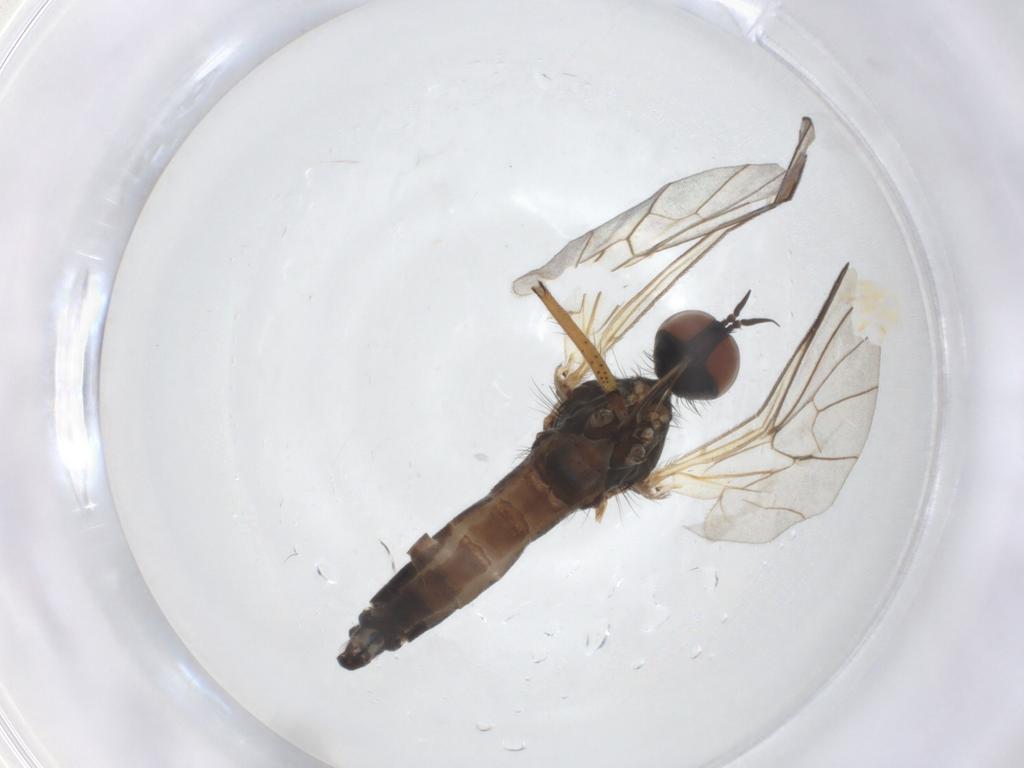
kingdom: Animalia
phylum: Arthropoda
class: Insecta
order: Diptera
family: Empididae
